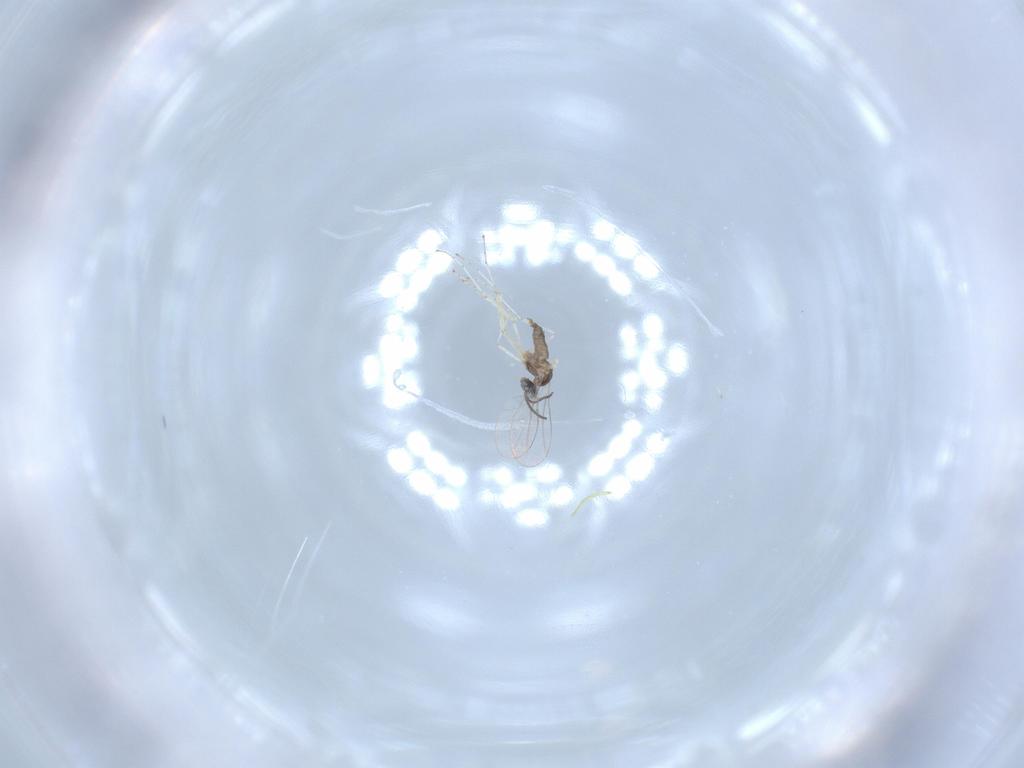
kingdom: Animalia
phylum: Arthropoda
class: Insecta
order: Diptera
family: Cecidomyiidae
